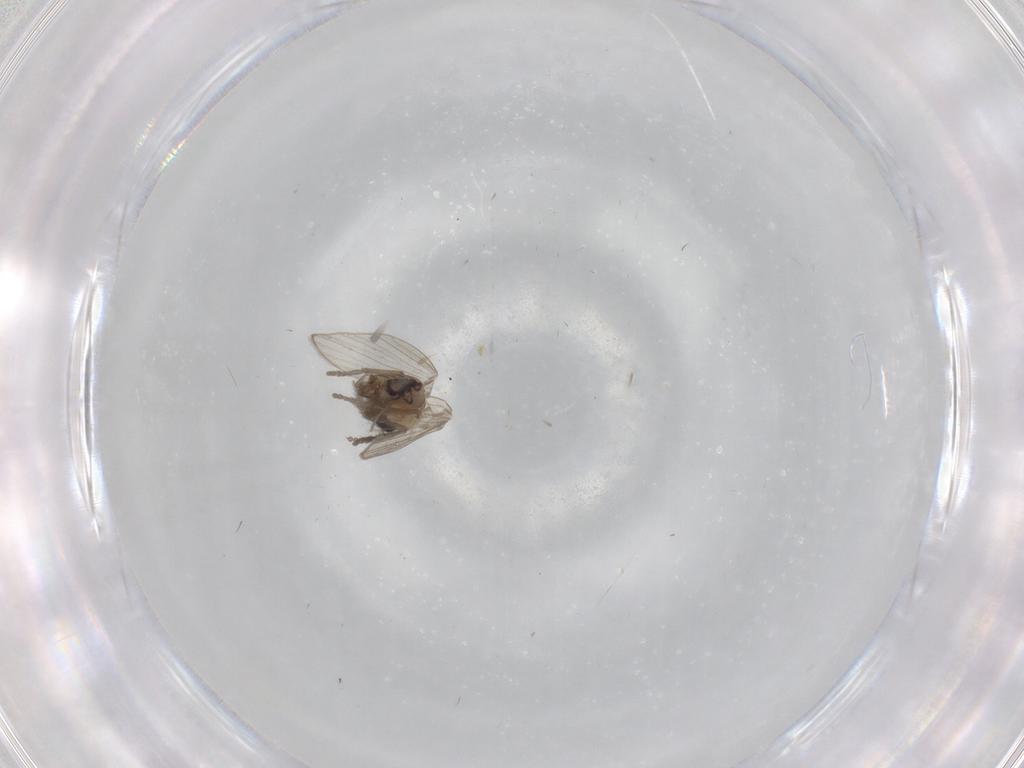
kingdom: Animalia
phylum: Arthropoda
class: Insecta
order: Diptera
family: Psychodidae
